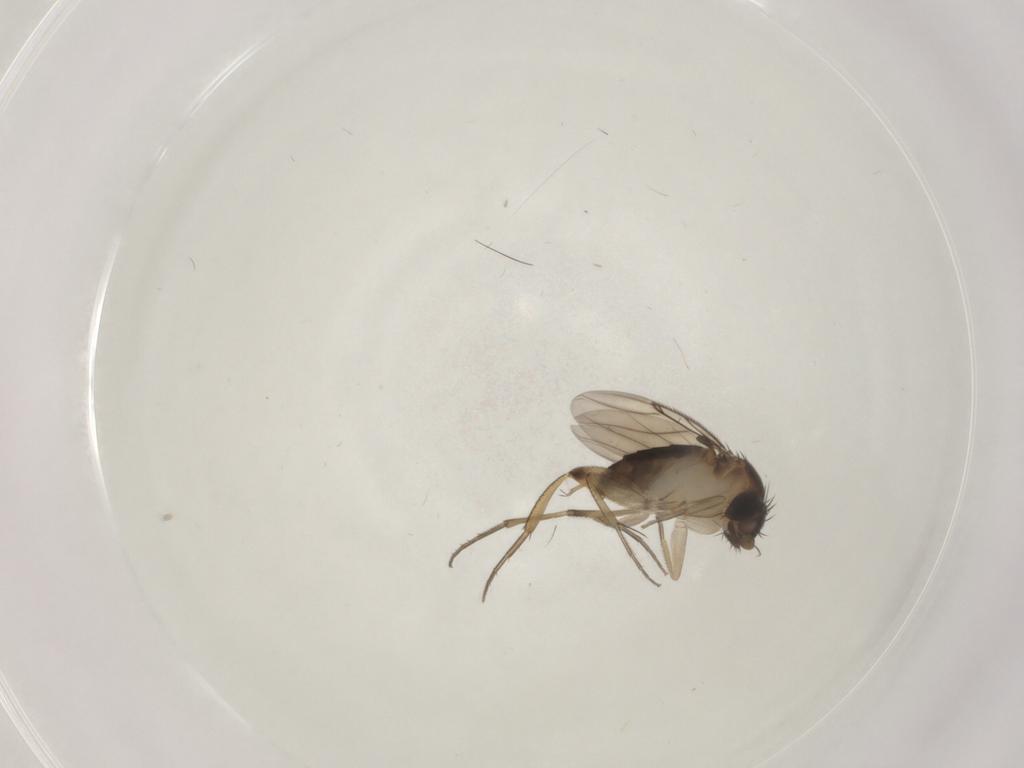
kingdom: Animalia
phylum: Arthropoda
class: Insecta
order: Diptera
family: Phoridae
